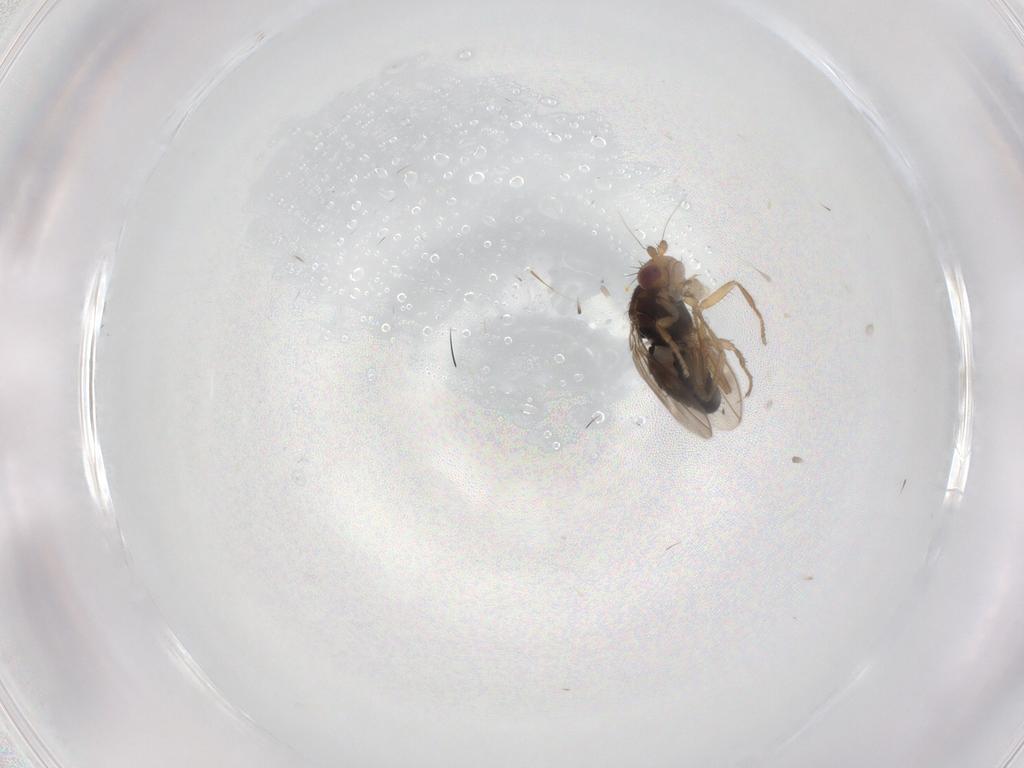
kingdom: Animalia
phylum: Arthropoda
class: Insecta
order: Diptera
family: Sphaeroceridae
